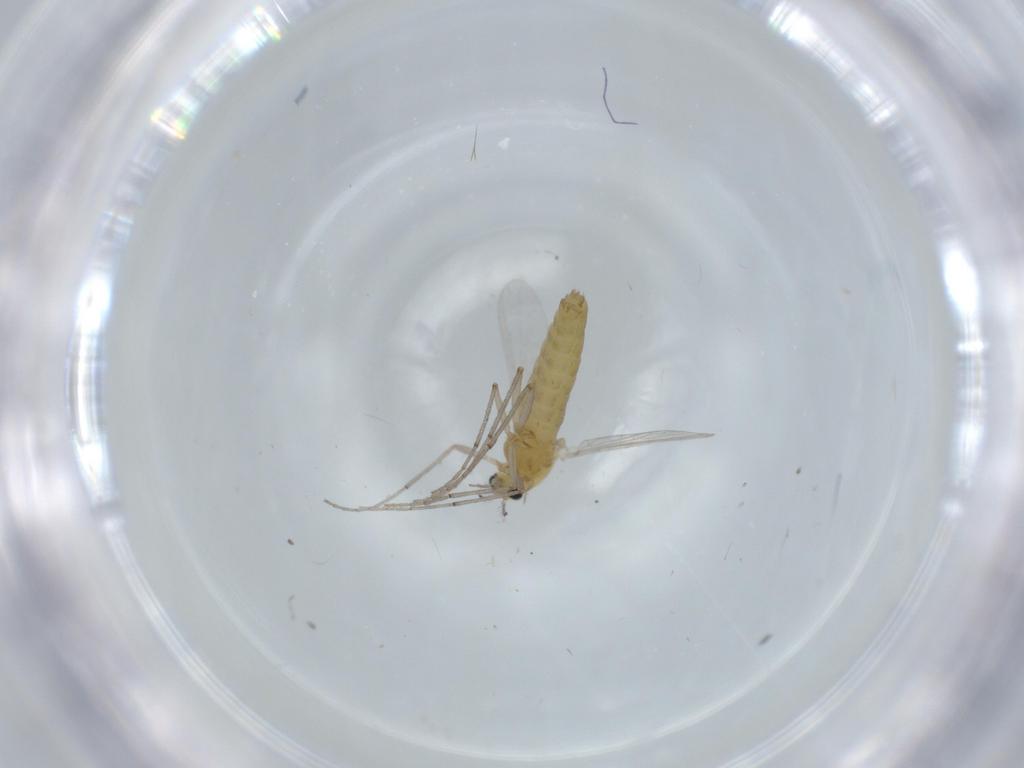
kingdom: Animalia
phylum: Arthropoda
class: Insecta
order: Diptera
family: Chironomidae
